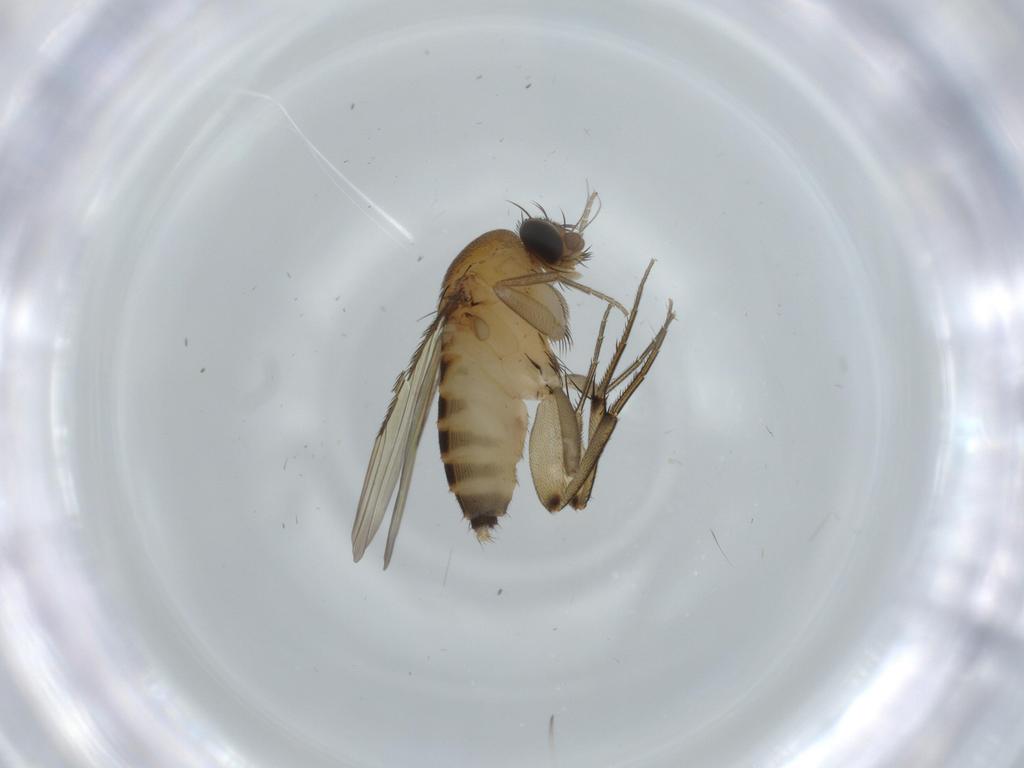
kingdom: Animalia
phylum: Arthropoda
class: Insecta
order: Diptera
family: Phoridae
